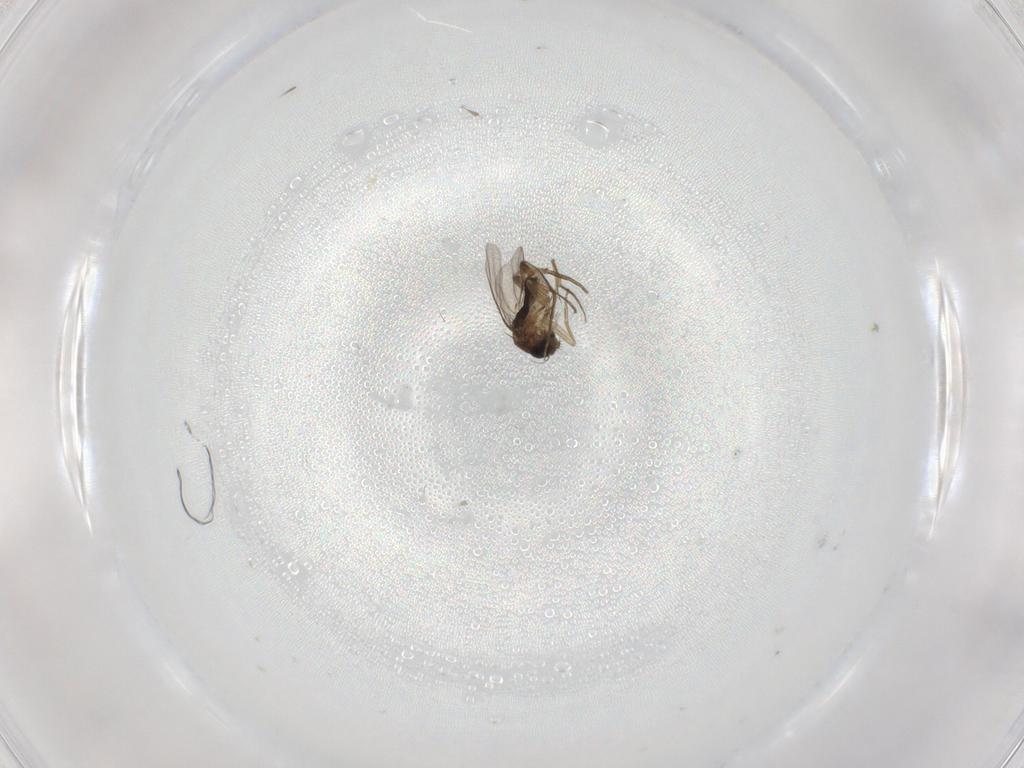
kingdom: Animalia
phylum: Arthropoda
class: Insecta
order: Diptera
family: Phoridae
